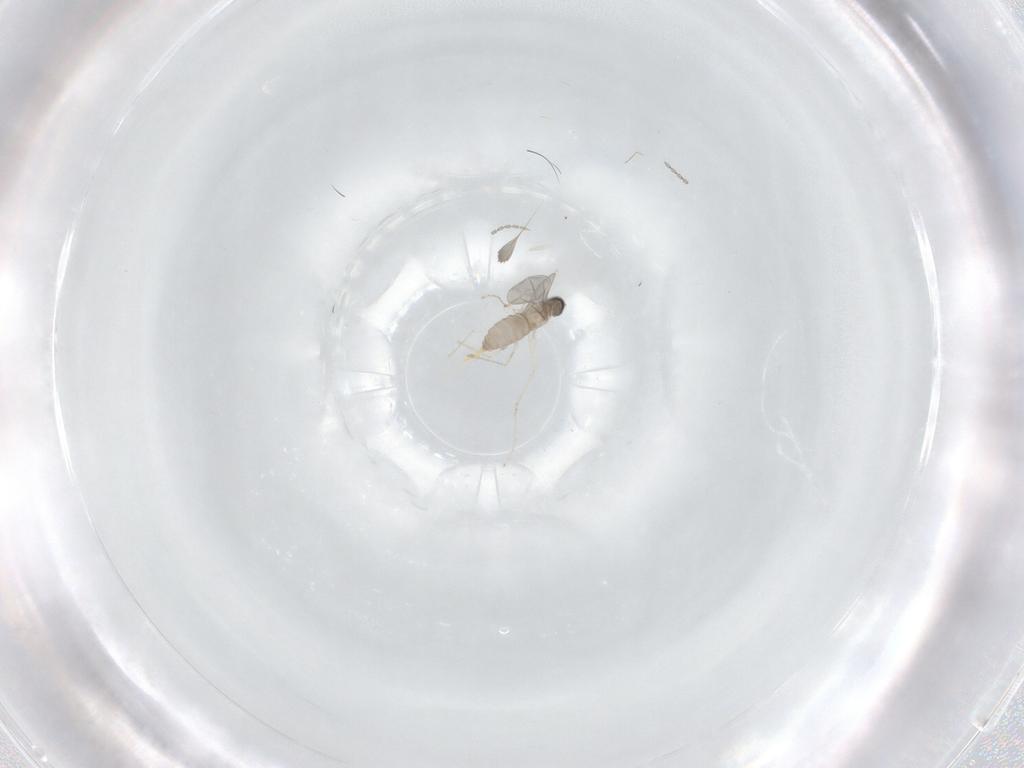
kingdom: Animalia
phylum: Arthropoda
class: Insecta
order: Diptera
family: Cecidomyiidae
